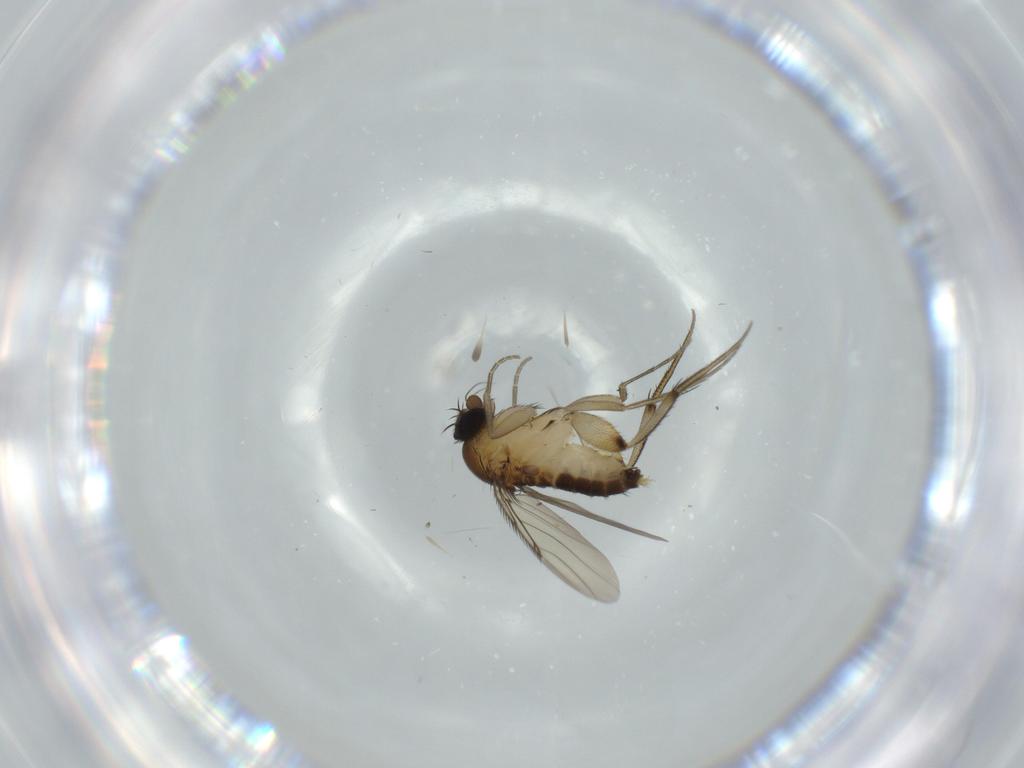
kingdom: Animalia
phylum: Arthropoda
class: Insecta
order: Diptera
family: Phoridae
